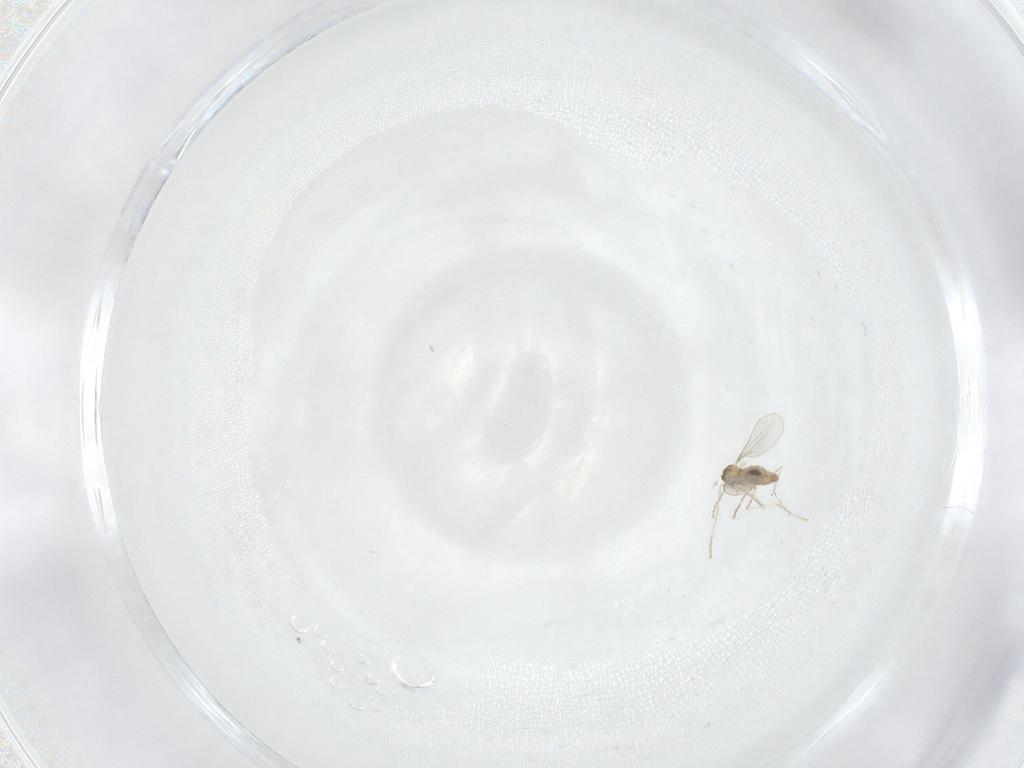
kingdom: Animalia
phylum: Arthropoda
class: Insecta
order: Diptera
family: Cecidomyiidae
